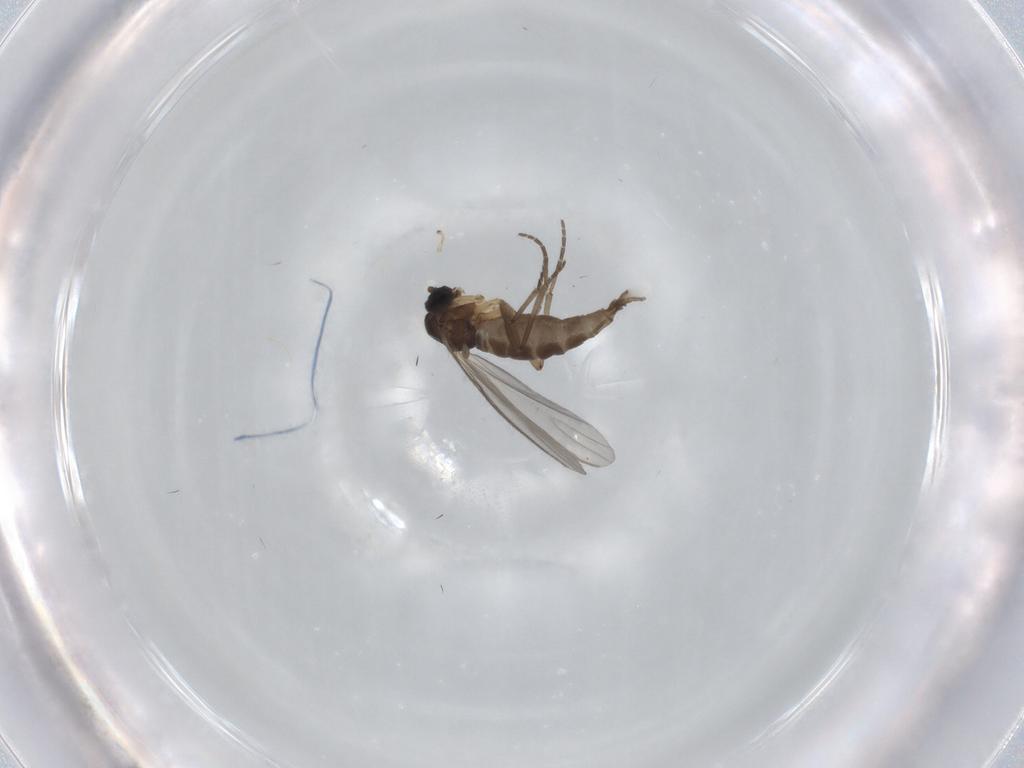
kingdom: Animalia
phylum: Arthropoda
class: Insecta
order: Diptera
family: Sciaridae
